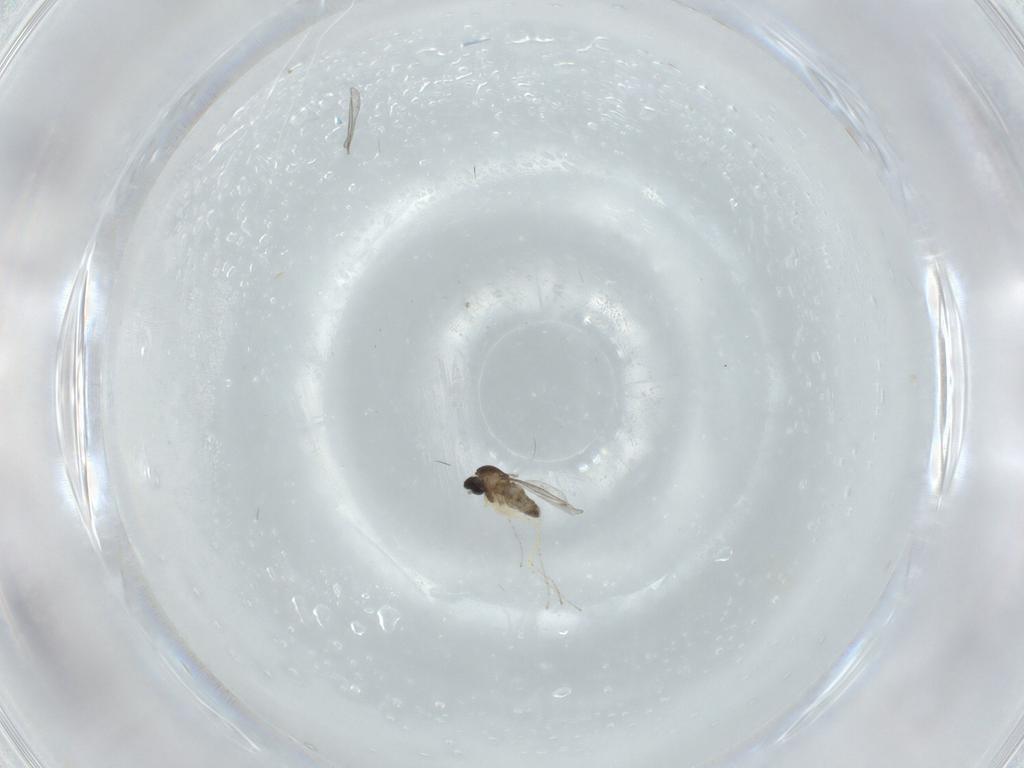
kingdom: Animalia
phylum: Arthropoda
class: Insecta
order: Diptera
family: Cecidomyiidae
